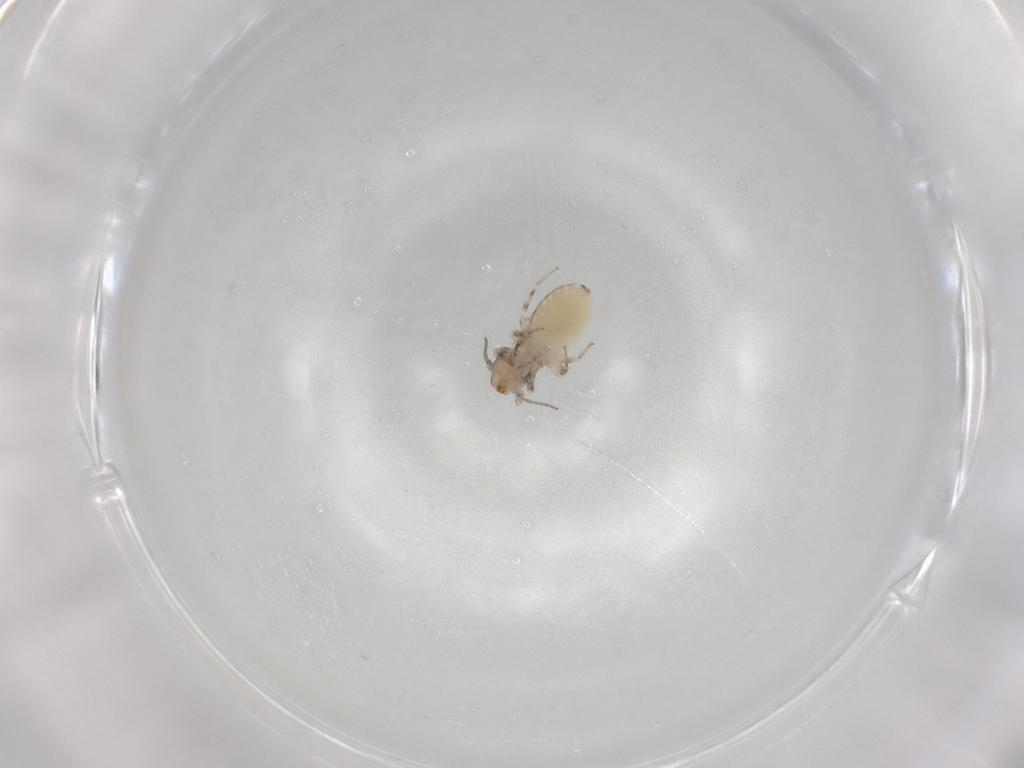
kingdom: Animalia
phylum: Arthropoda
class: Insecta
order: Psocodea
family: Lepidopsocidae
